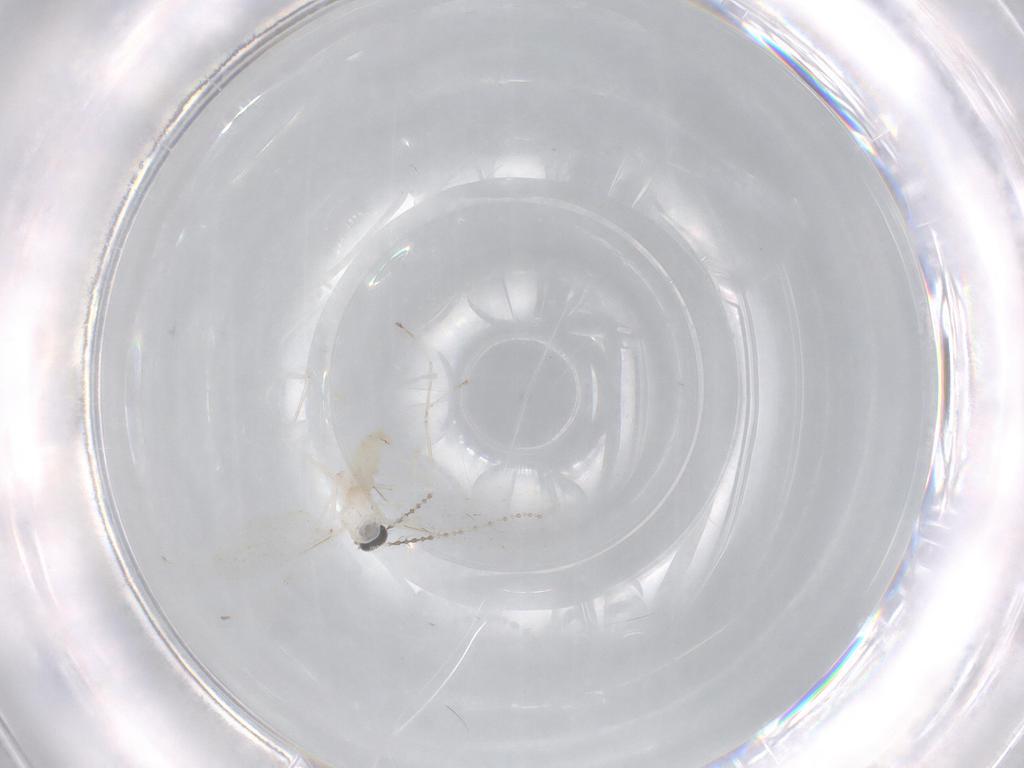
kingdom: Animalia
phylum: Arthropoda
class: Insecta
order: Diptera
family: Cecidomyiidae
